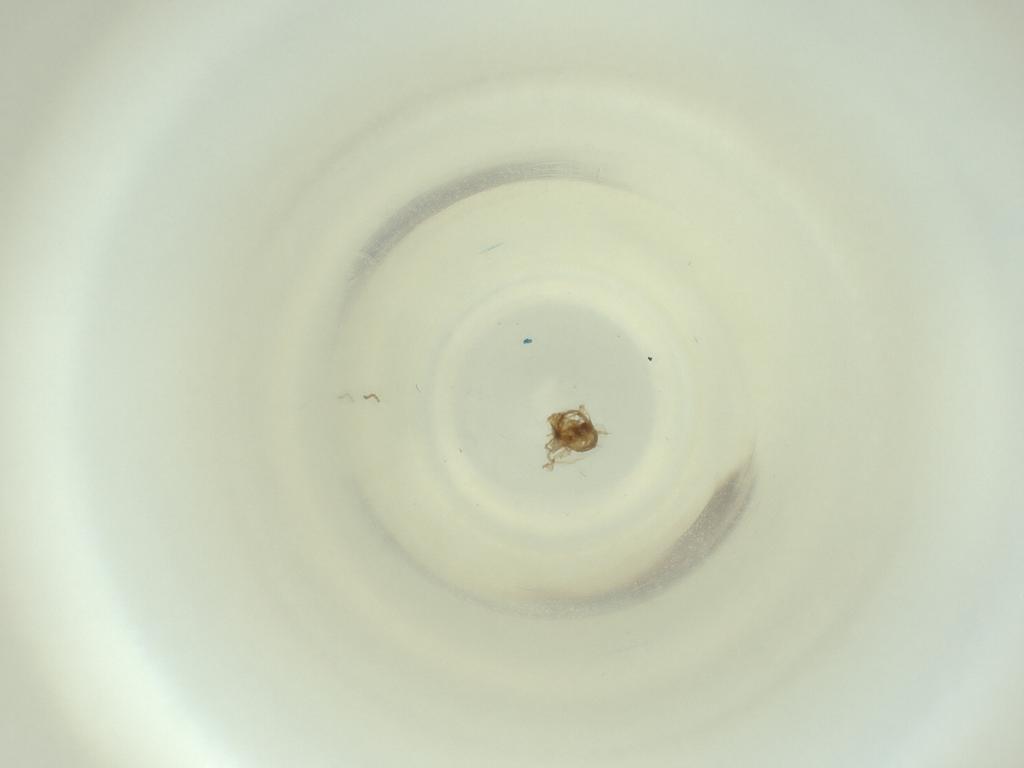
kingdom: Animalia
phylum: Arthropoda
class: Insecta
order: Diptera
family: Cecidomyiidae
